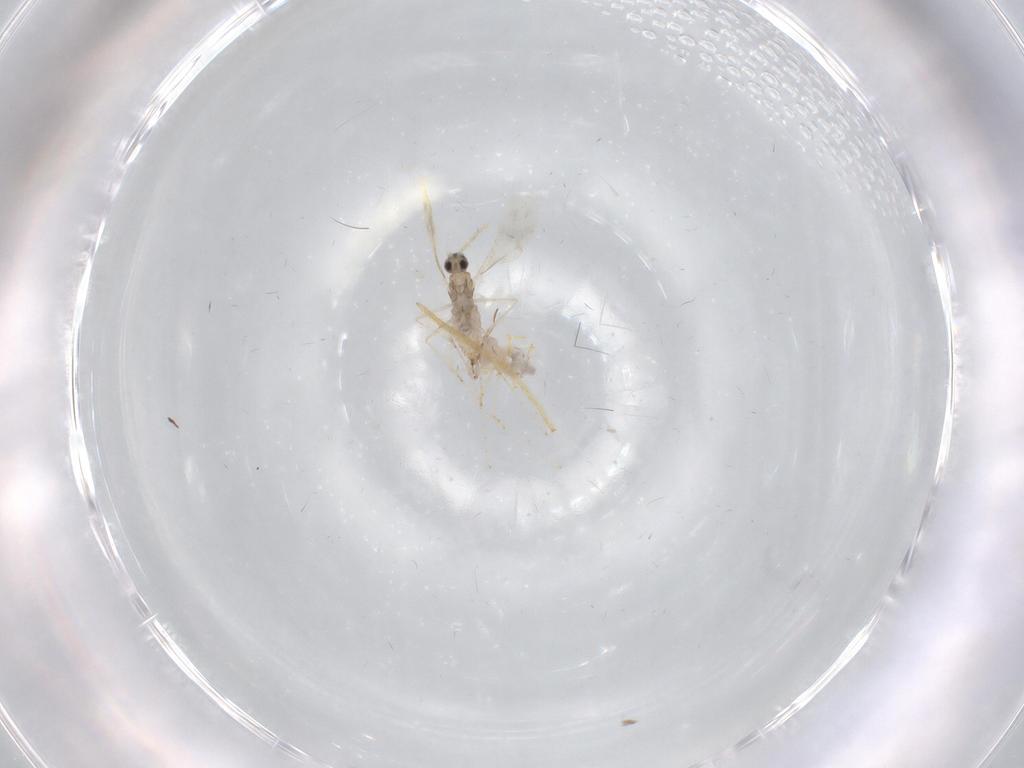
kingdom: Animalia
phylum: Arthropoda
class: Insecta
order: Diptera
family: Cecidomyiidae
